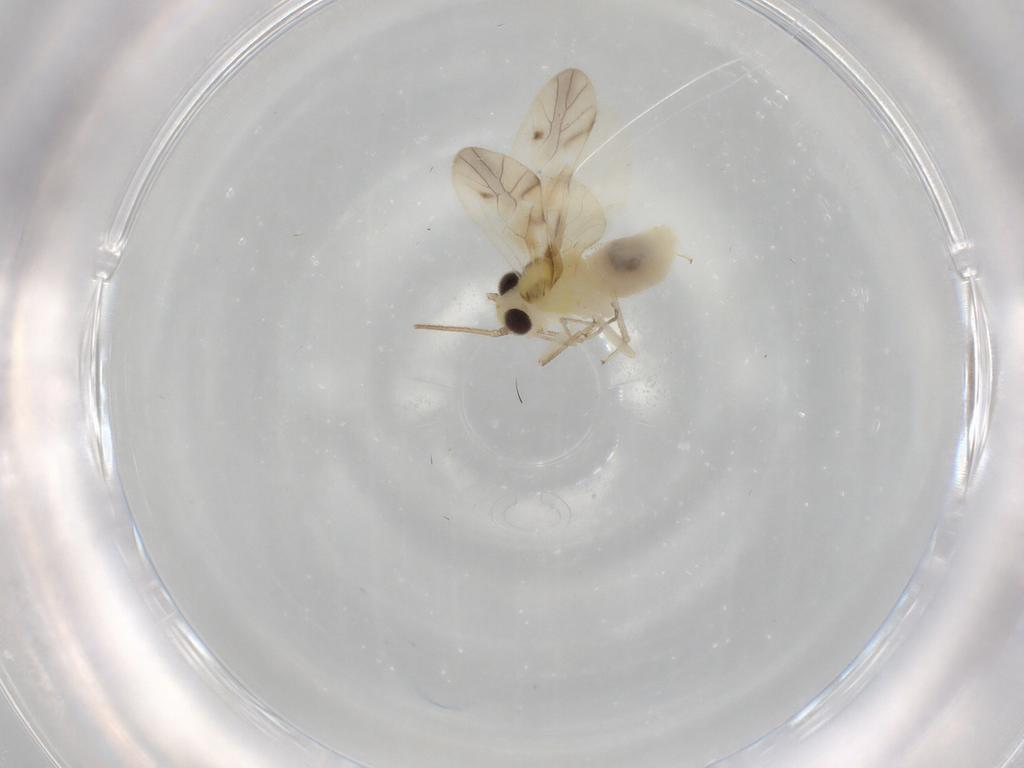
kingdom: Animalia
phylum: Arthropoda
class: Insecta
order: Psocodea
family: Caeciliusidae
